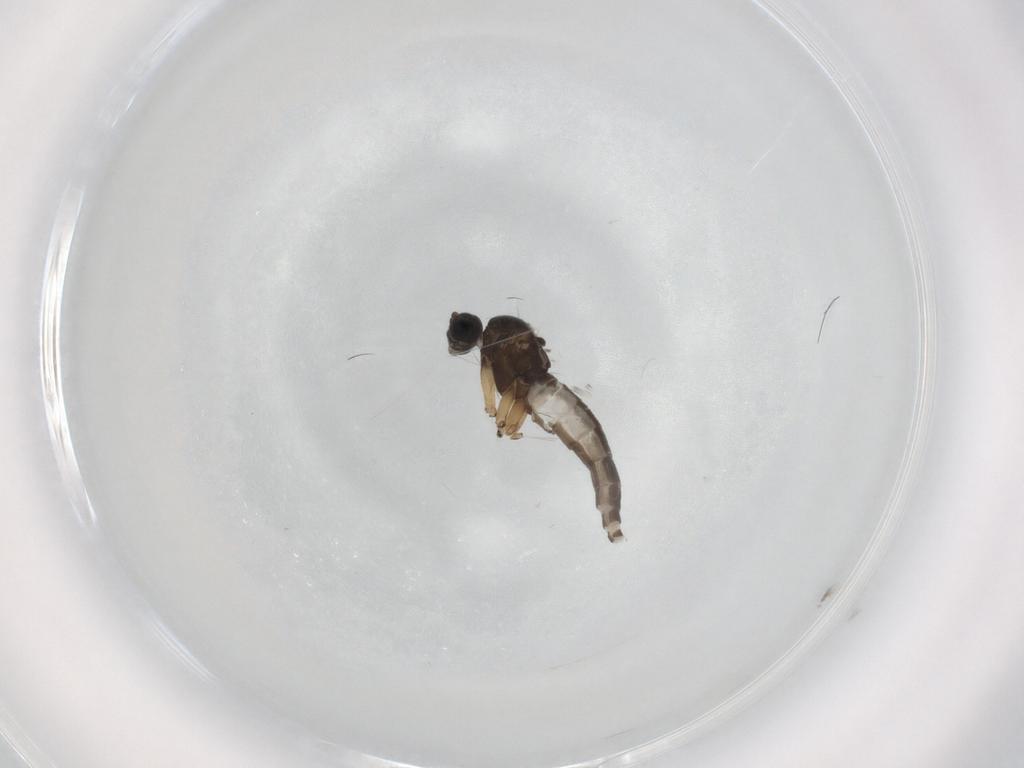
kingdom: Animalia
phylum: Arthropoda
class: Insecta
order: Diptera
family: Sciaridae
